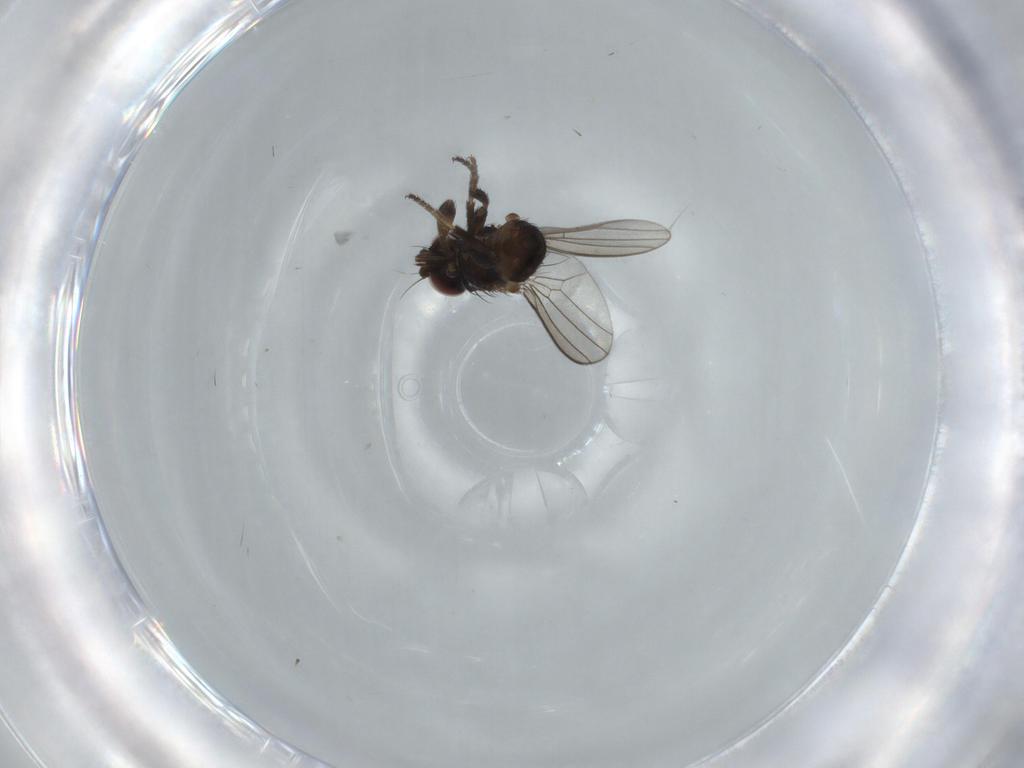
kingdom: Animalia
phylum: Arthropoda
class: Insecta
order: Diptera
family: Milichiidae
